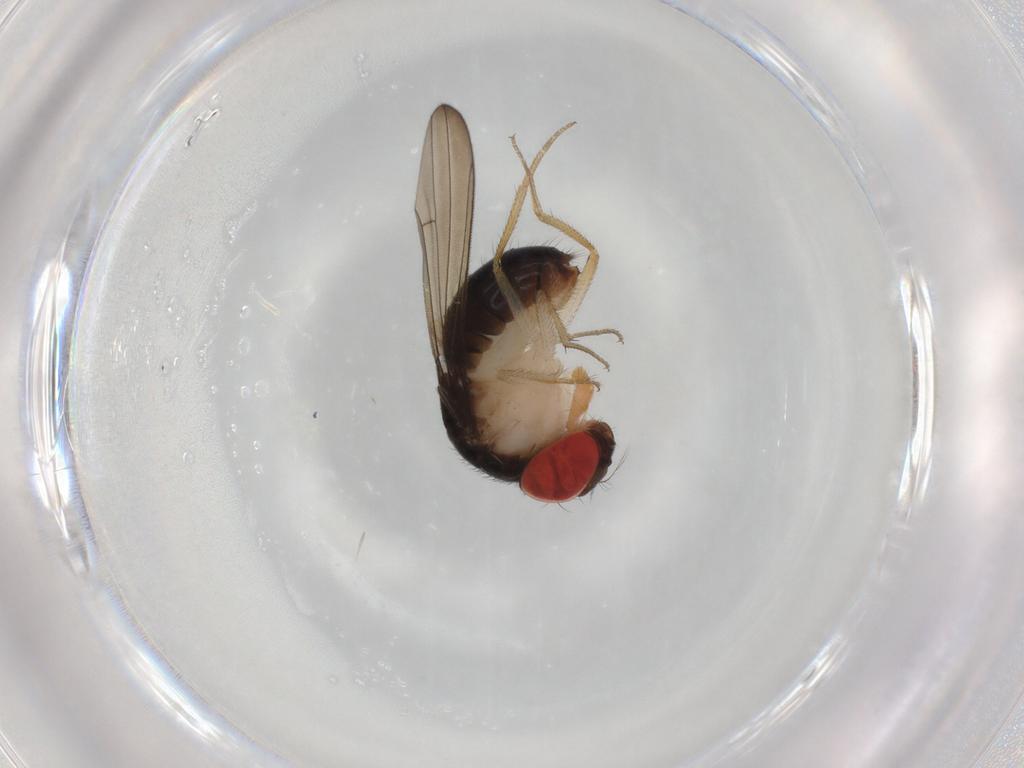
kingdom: Animalia
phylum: Arthropoda
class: Insecta
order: Diptera
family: Drosophilidae
